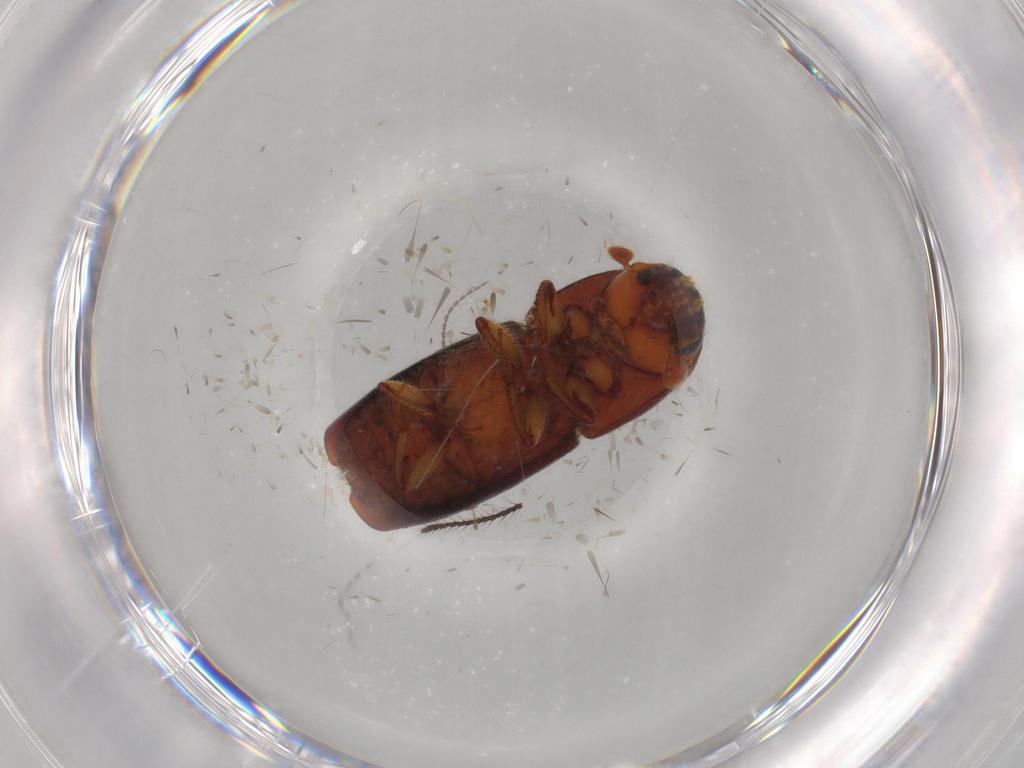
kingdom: Animalia
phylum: Arthropoda
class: Insecta
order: Coleoptera
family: Curculionidae
